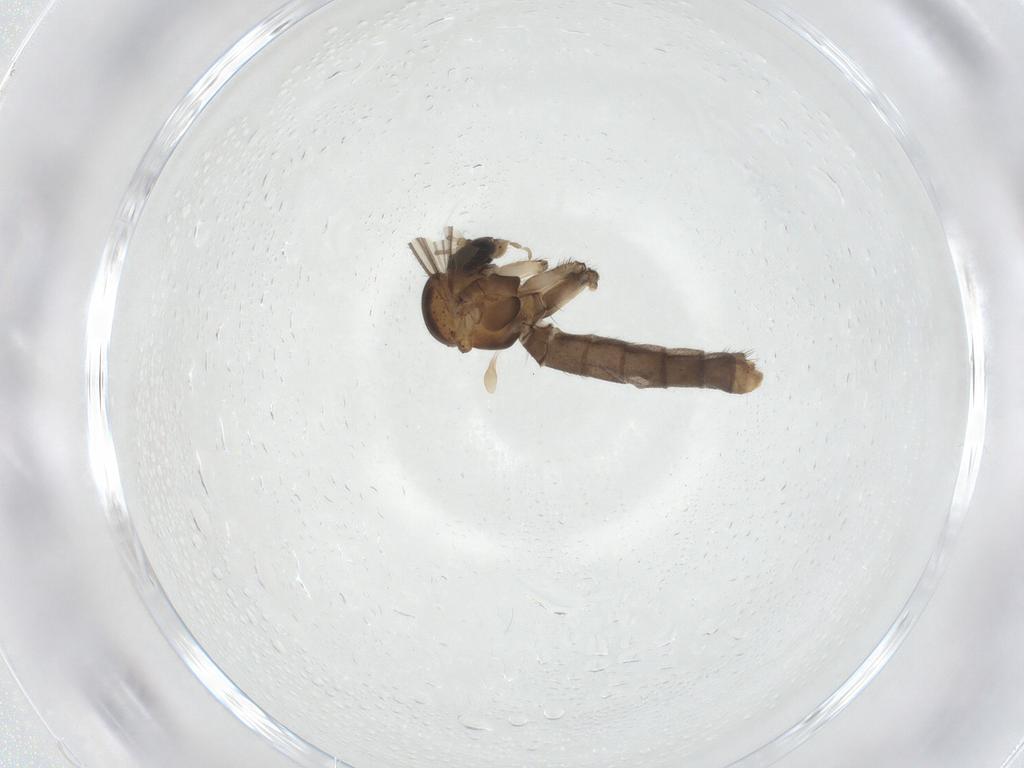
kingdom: Animalia
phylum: Arthropoda
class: Insecta
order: Diptera
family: Mycetophilidae
